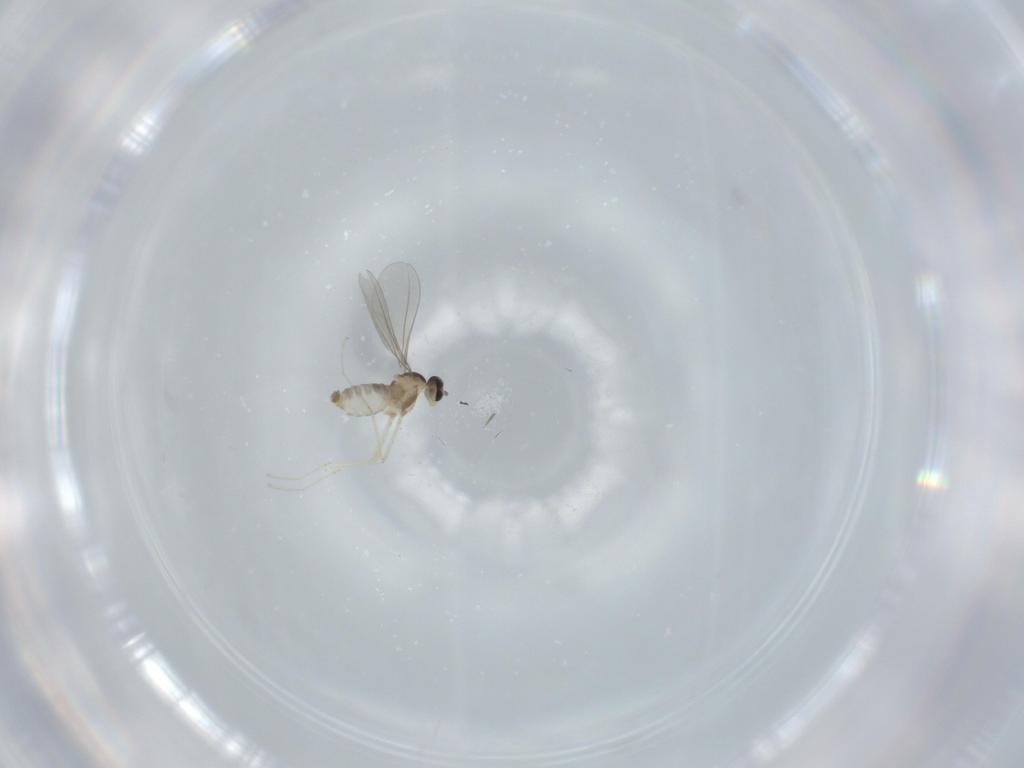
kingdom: Animalia
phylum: Arthropoda
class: Insecta
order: Diptera
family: Cecidomyiidae
